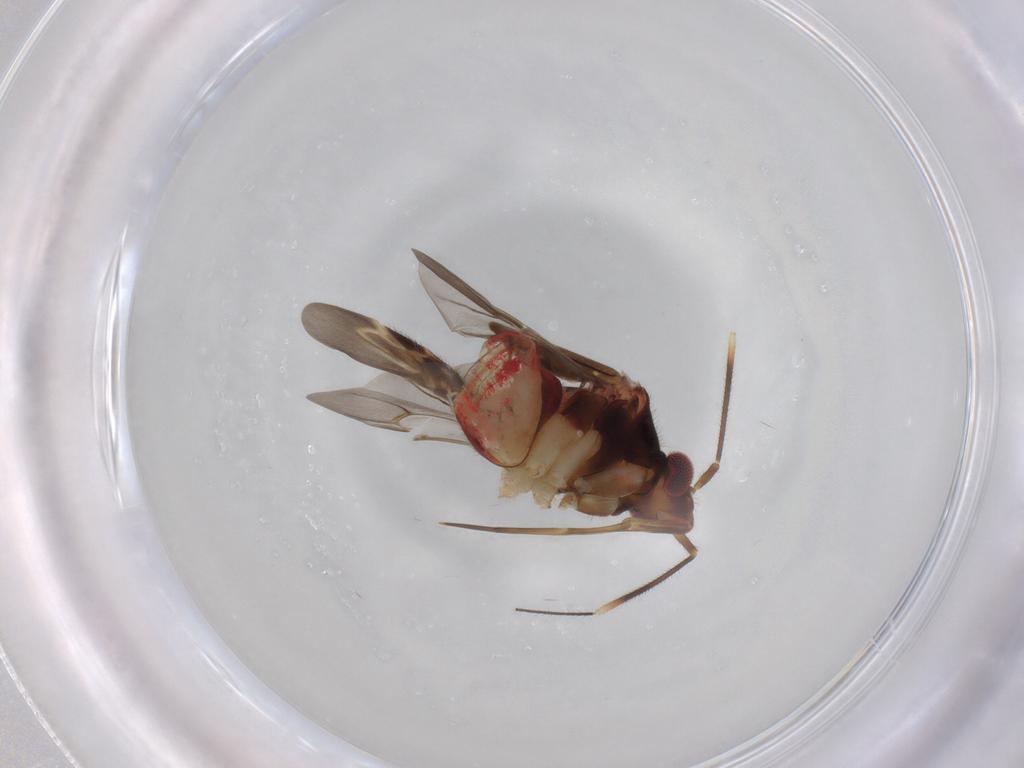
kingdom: Animalia
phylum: Arthropoda
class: Insecta
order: Hemiptera
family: Miridae
